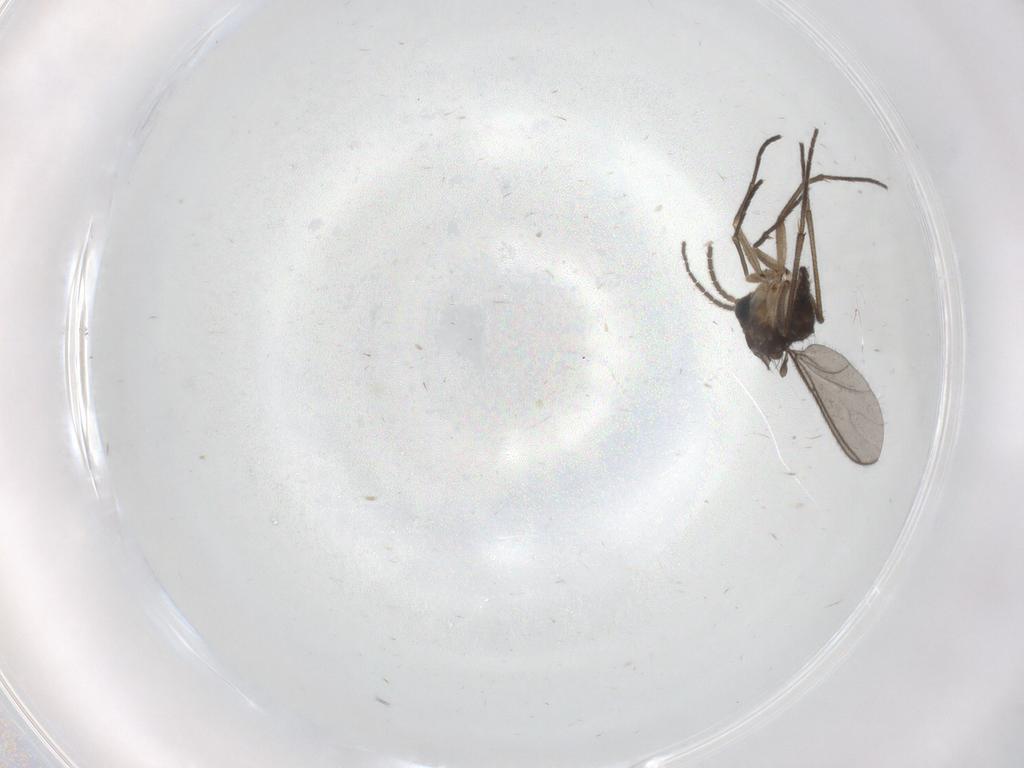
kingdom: Animalia
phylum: Arthropoda
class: Insecta
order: Diptera
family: Sciaridae
